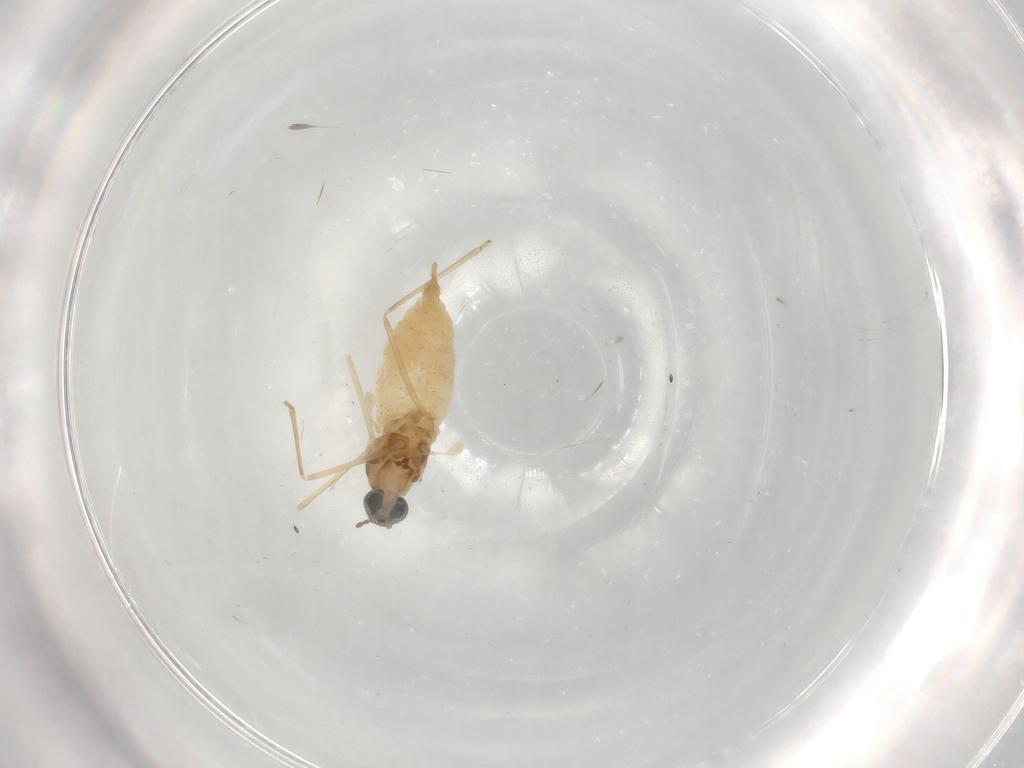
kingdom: Animalia
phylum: Arthropoda
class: Insecta
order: Diptera
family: Cecidomyiidae
